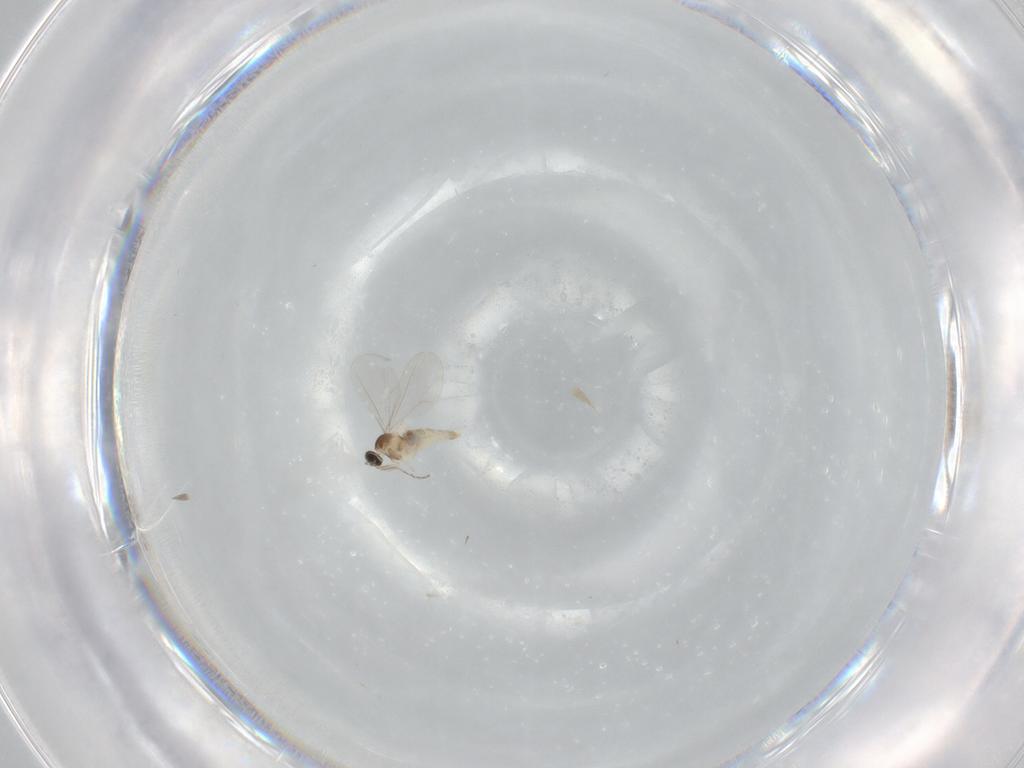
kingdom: Animalia
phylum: Arthropoda
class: Insecta
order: Diptera
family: Cecidomyiidae
